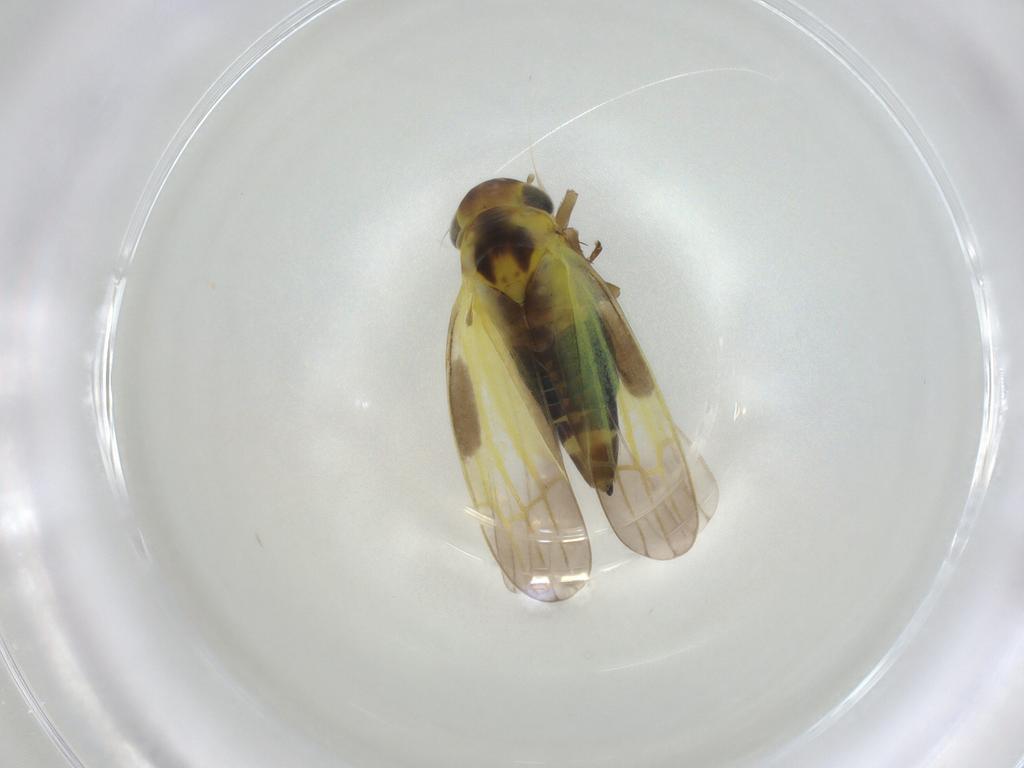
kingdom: Animalia
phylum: Arthropoda
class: Insecta
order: Hemiptera
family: Cicadellidae
